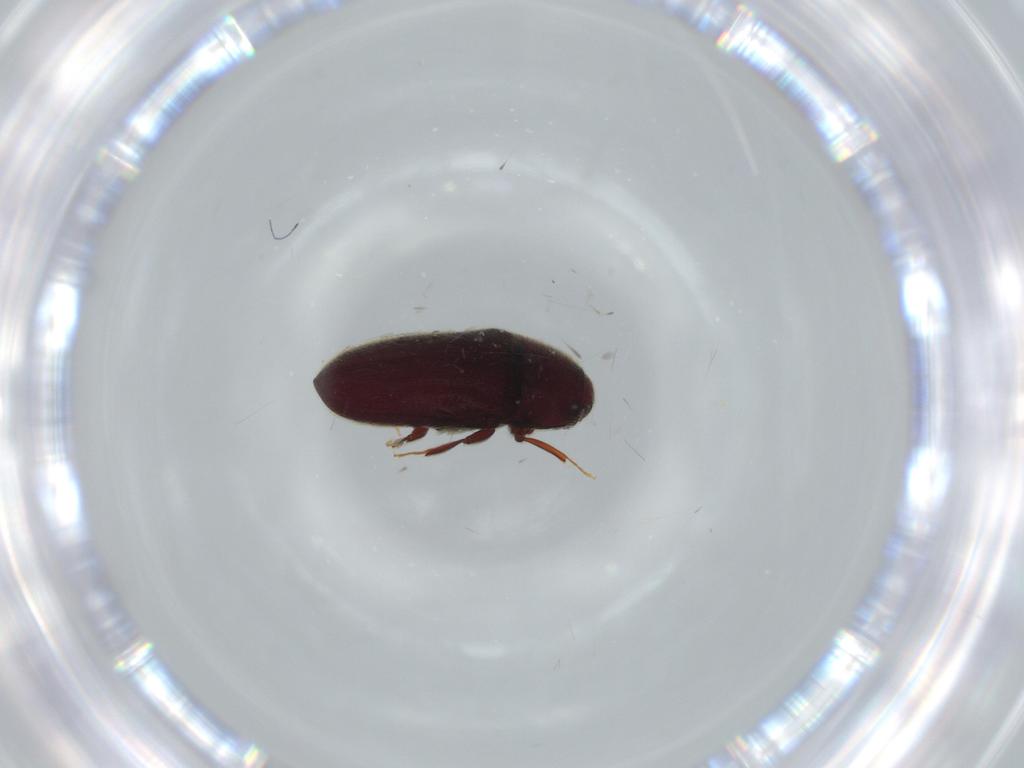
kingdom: Animalia
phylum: Arthropoda
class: Insecta
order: Coleoptera
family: Throscidae
